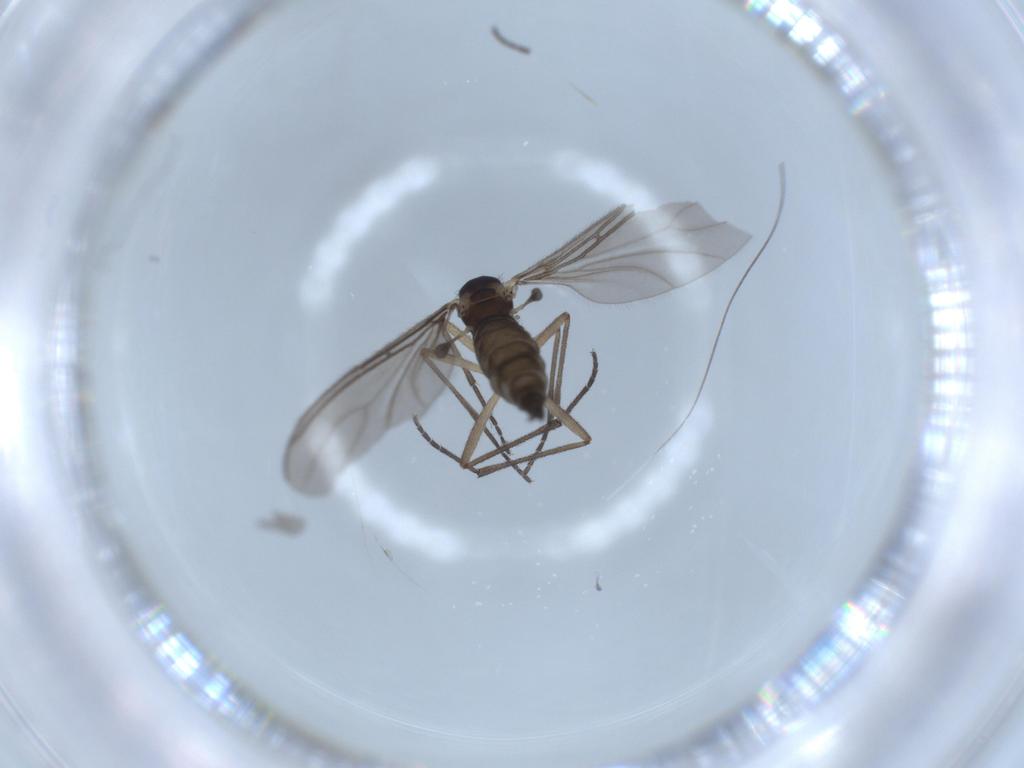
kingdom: Animalia
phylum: Arthropoda
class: Insecta
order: Diptera
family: Sciaridae
